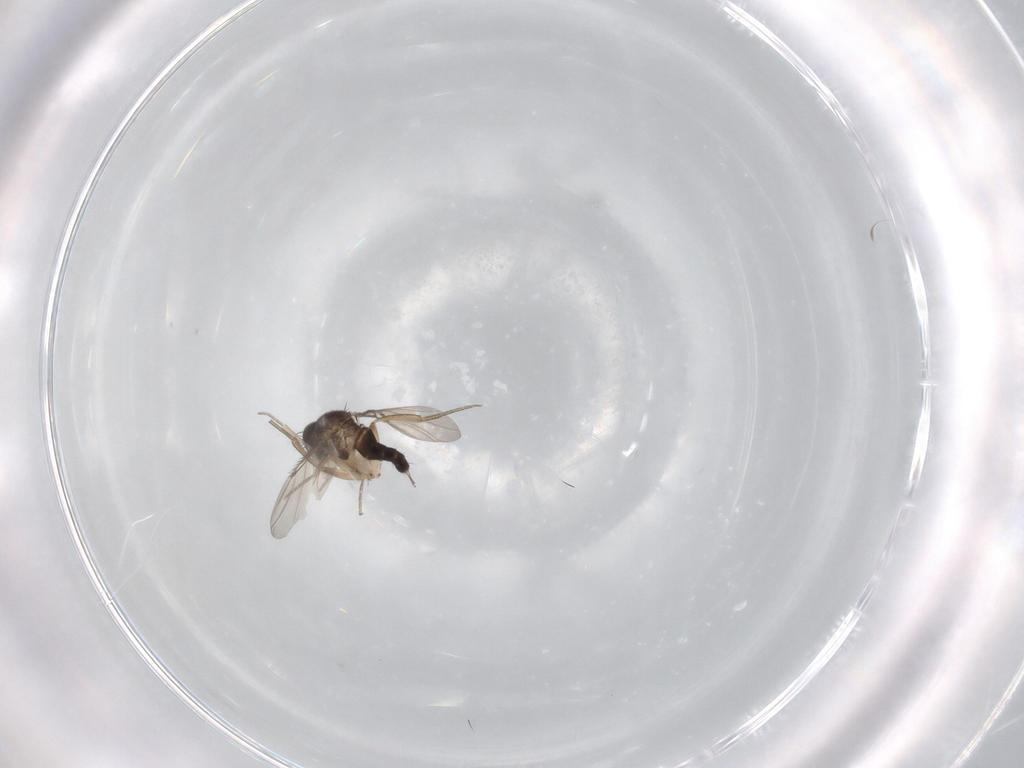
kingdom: Animalia
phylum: Arthropoda
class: Insecta
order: Diptera
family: Phoridae
